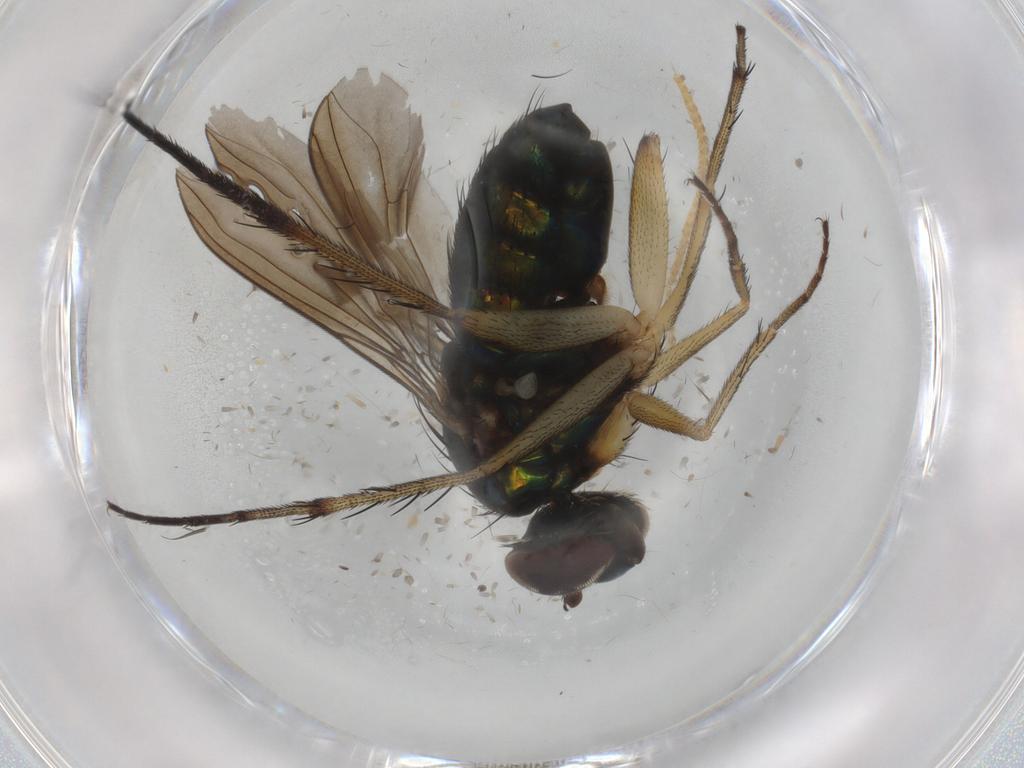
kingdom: Animalia
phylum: Arthropoda
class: Insecta
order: Diptera
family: Dolichopodidae
